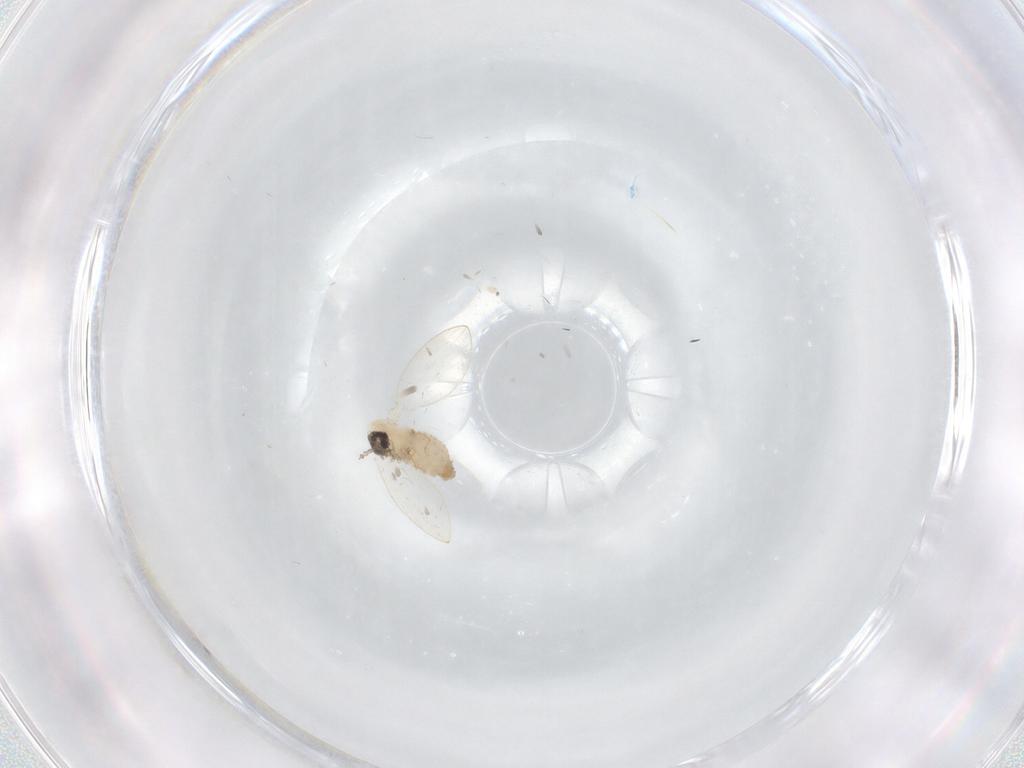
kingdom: Animalia
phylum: Arthropoda
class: Insecta
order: Diptera
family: Psychodidae
